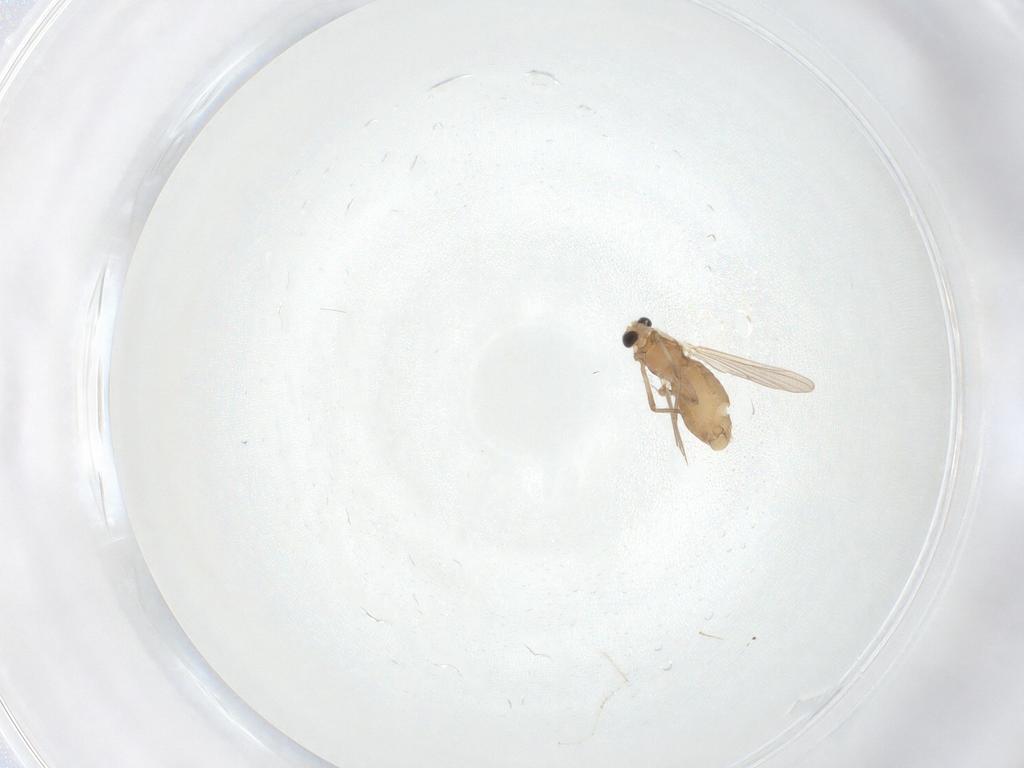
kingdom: Animalia
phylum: Arthropoda
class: Insecta
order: Diptera
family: Chironomidae
